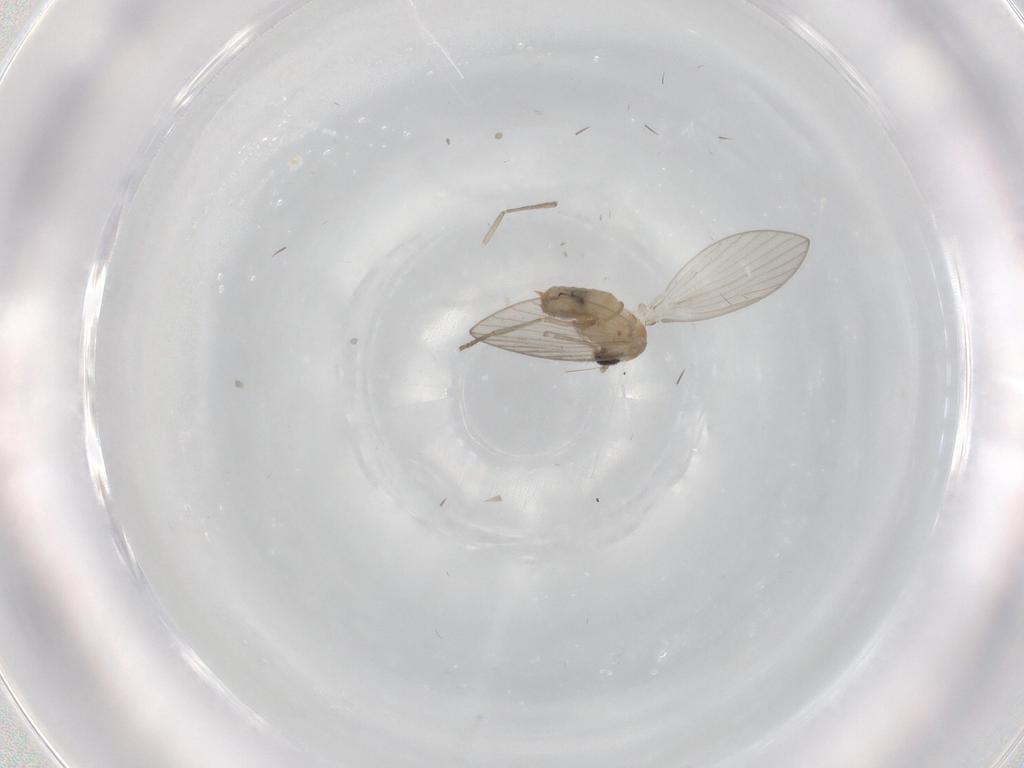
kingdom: Animalia
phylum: Arthropoda
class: Insecta
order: Diptera
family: Psychodidae
